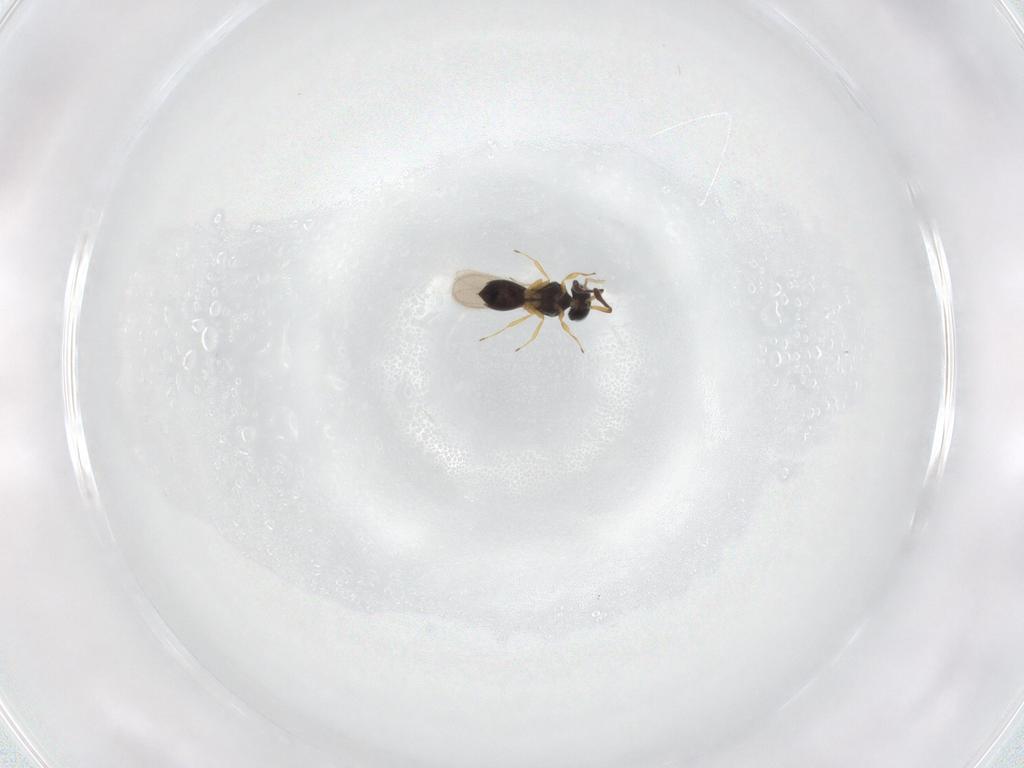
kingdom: Animalia
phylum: Arthropoda
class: Insecta
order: Hymenoptera
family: Scelionidae
